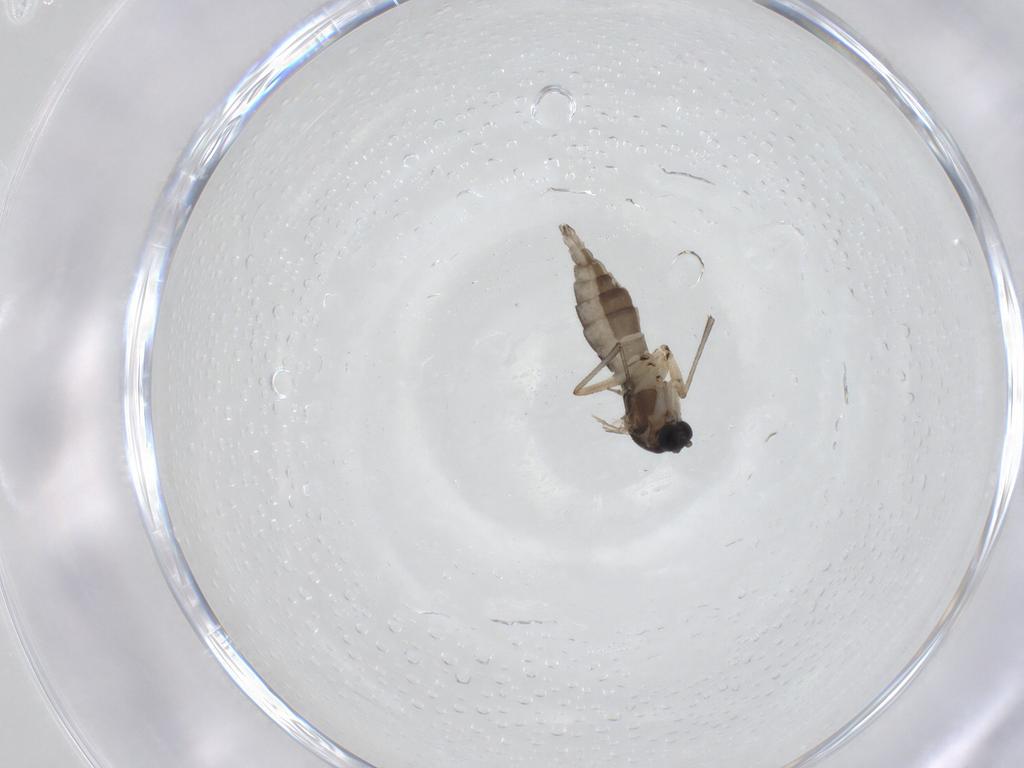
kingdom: Animalia
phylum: Arthropoda
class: Insecta
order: Diptera
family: Sciaridae
